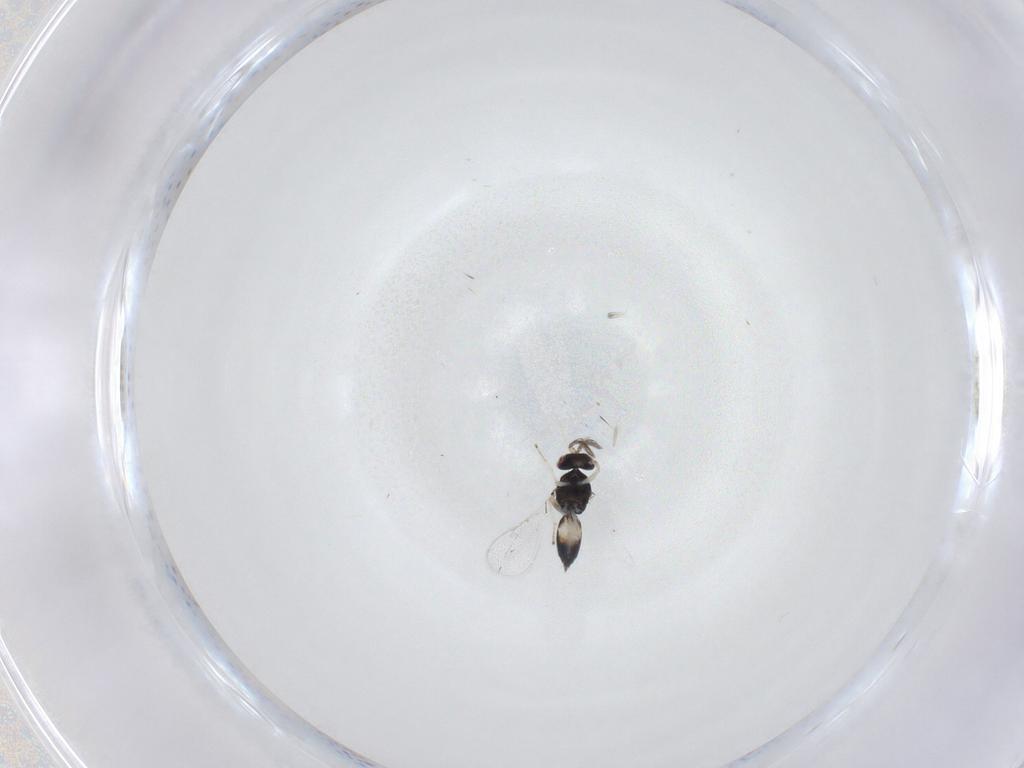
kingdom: Animalia
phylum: Arthropoda
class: Insecta
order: Hymenoptera
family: Eulophidae
